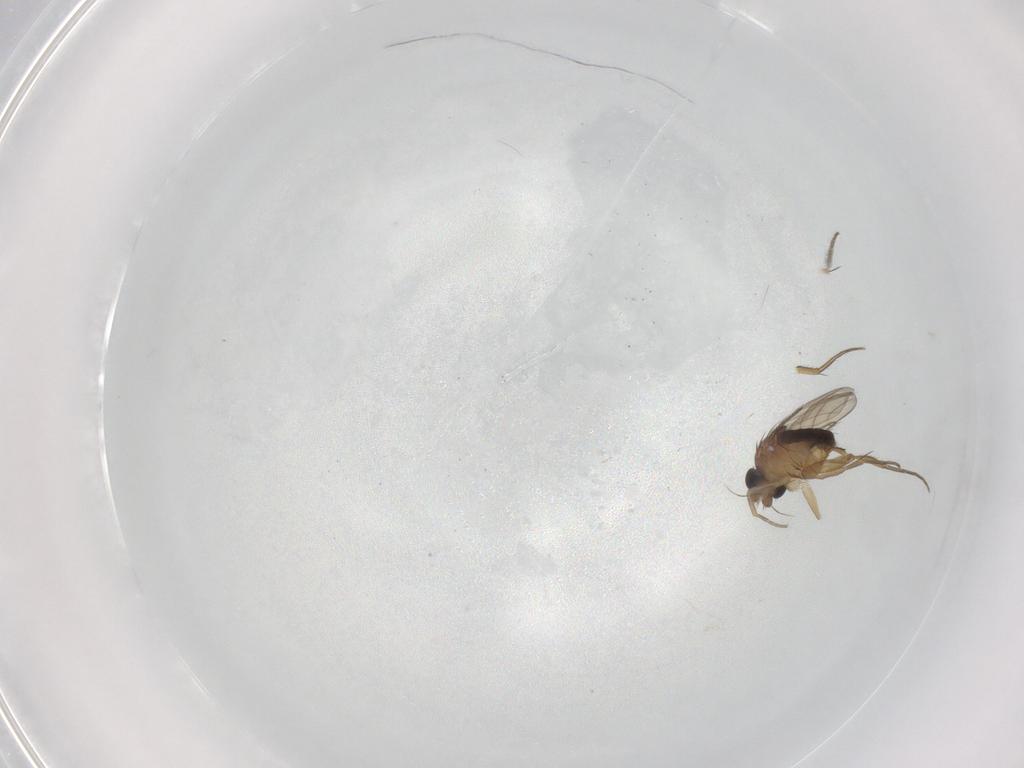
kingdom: Animalia
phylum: Arthropoda
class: Insecta
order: Diptera
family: Phoridae
